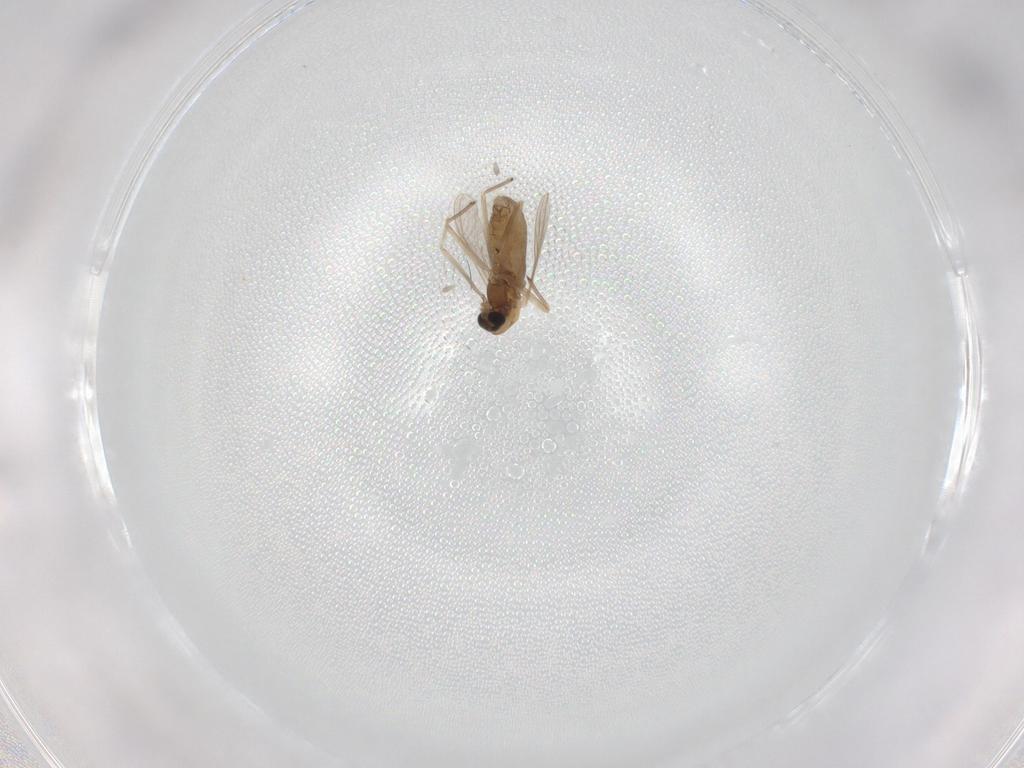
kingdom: Animalia
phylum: Arthropoda
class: Insecta
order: Diptera
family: Chironomidae
